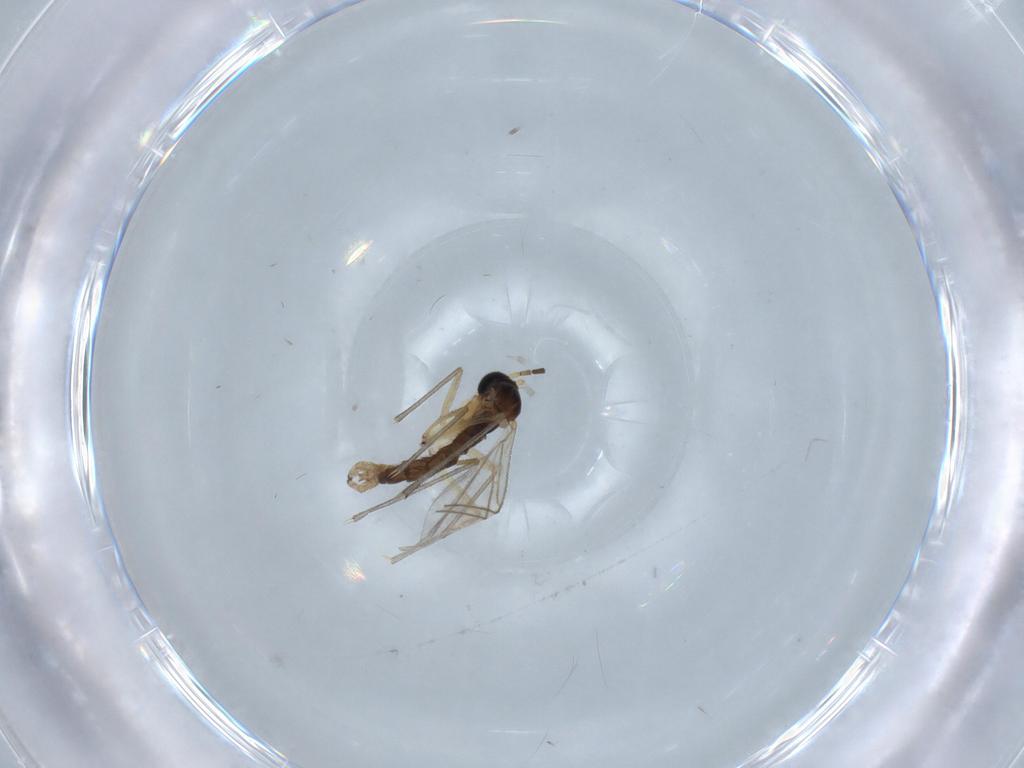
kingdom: Animalia
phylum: Arthropoda
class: Insecta
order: Diptera
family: Sciaridae
